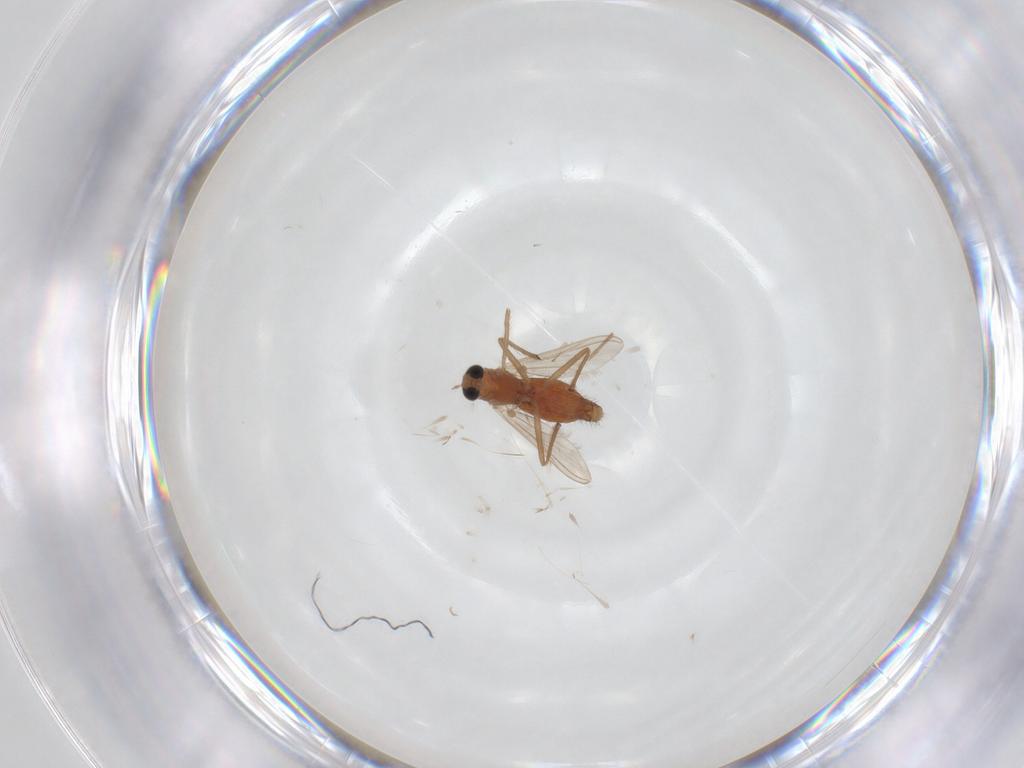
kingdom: Animalia
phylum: Arthropoda
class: Insecta
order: Diptera
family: Chironomidae
